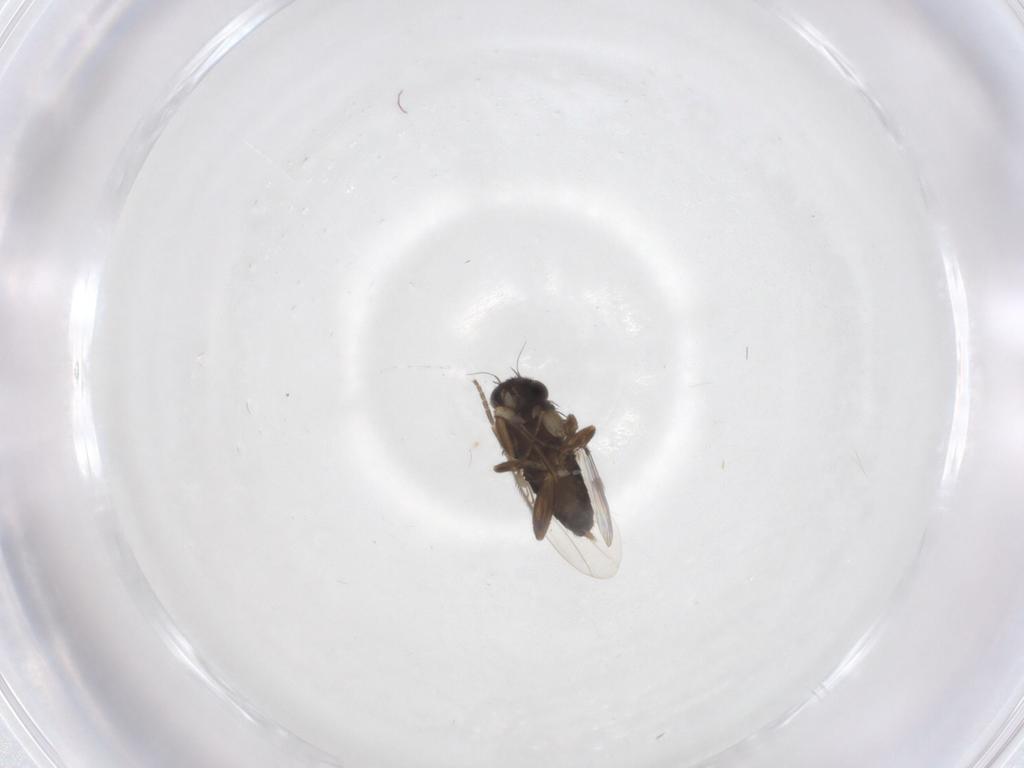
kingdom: Animalia
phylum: Arthropoda
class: Insecta
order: Diptera
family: Phoridae
